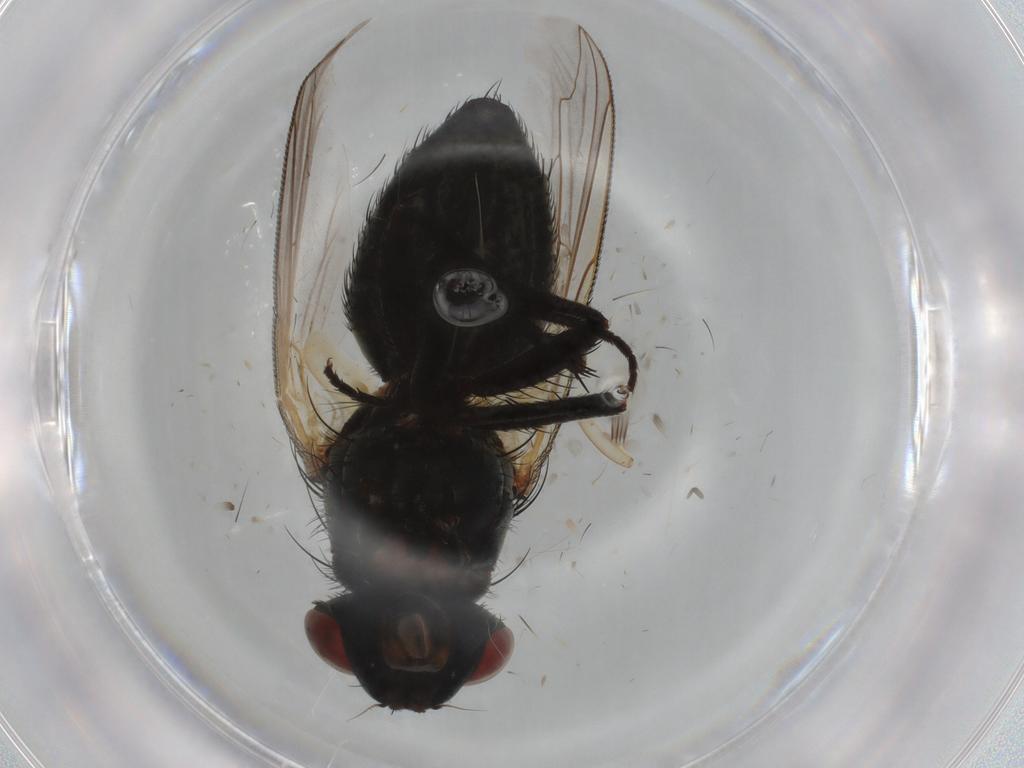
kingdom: Animalia
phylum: Arthropoda
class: Insecta
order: Diptera
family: Sarcophagidae
